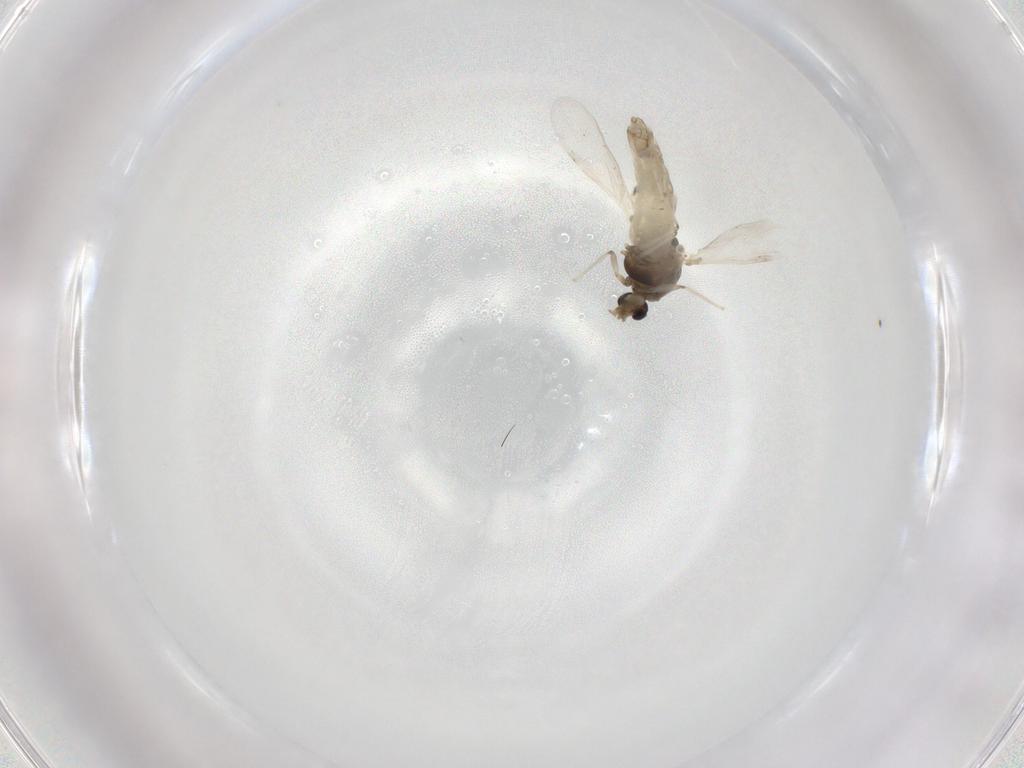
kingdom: Animalia
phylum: Arthropoda
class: Insecta
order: Diptera
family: Chironomidae
